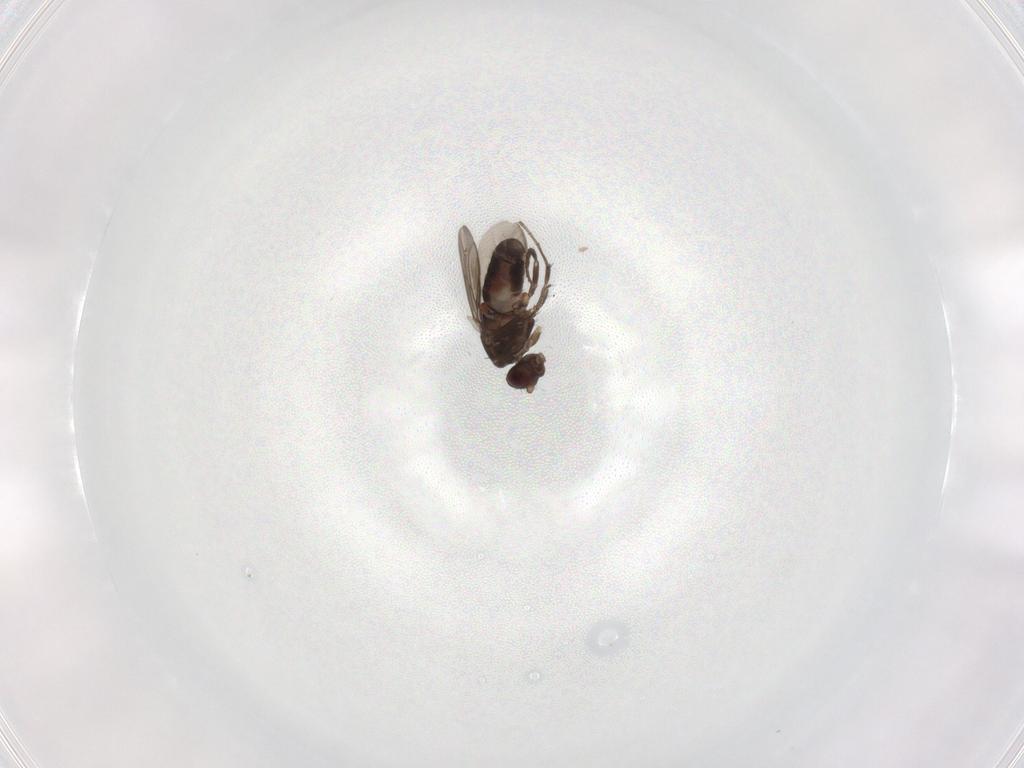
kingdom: Animalia
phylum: Arthropoda
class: Insecta
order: Diptera
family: Sphaeroceridae
